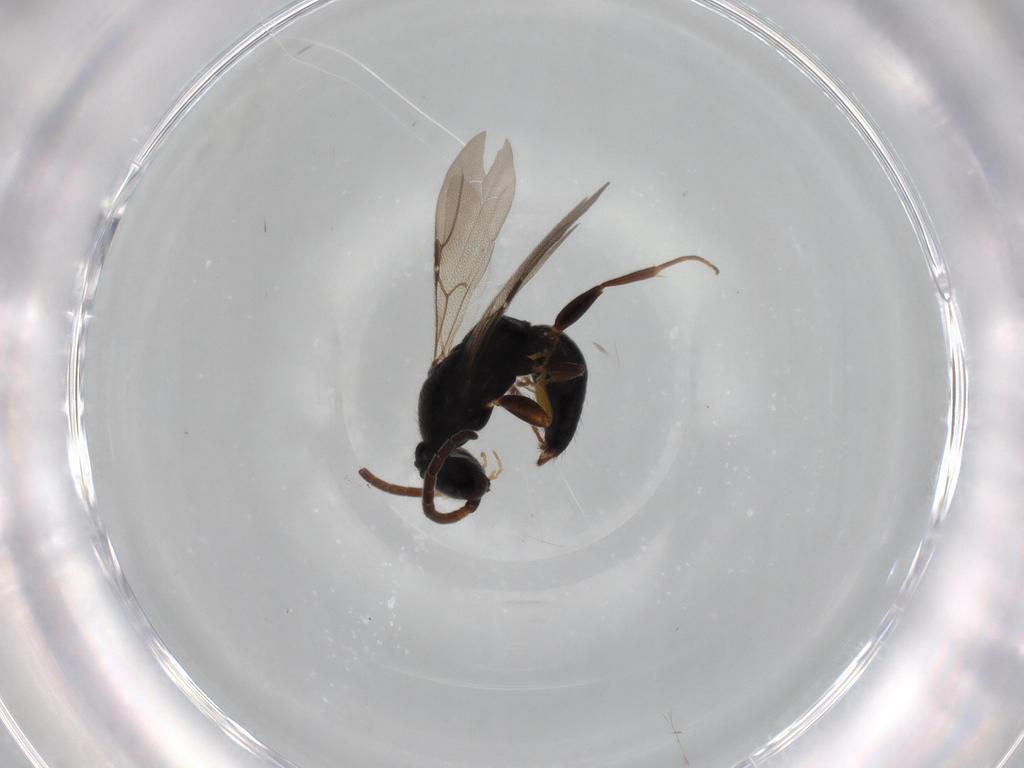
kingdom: Animalia
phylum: Arthropoda
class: Insecta
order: Hymenoptera
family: Bethylidae
